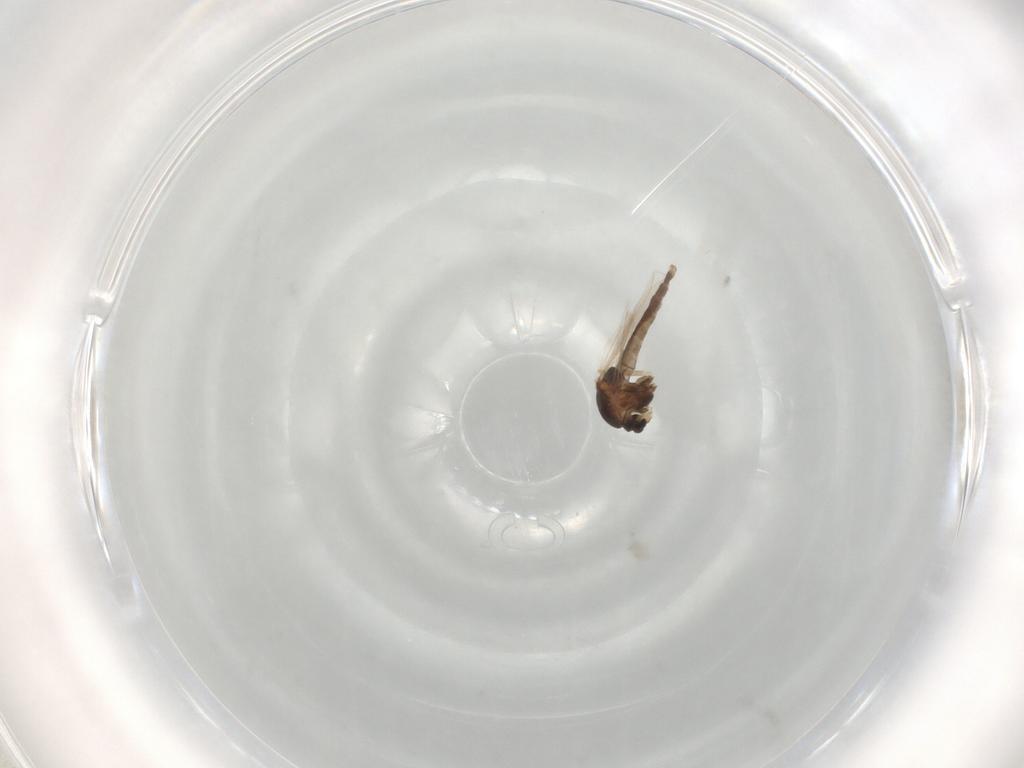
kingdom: Animalia
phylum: Arthropoda
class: Insecta
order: Diptera
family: Chironomidae
